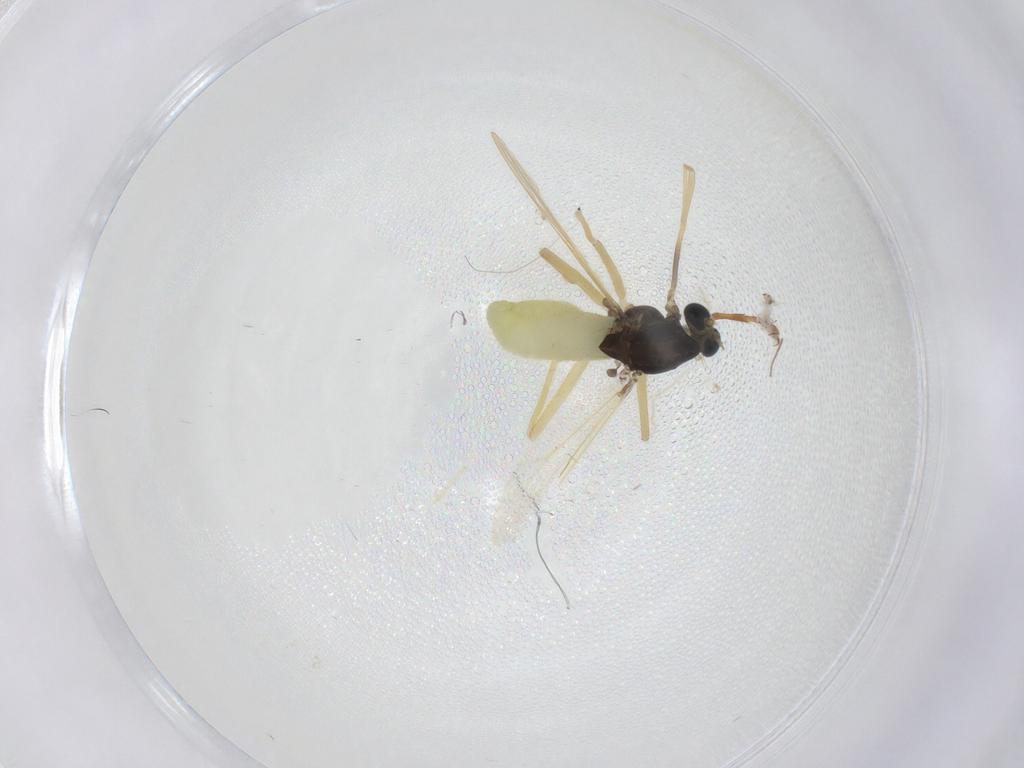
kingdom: Animalia
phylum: Arthropoda
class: Insecta
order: Diptera
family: Chironomidae
